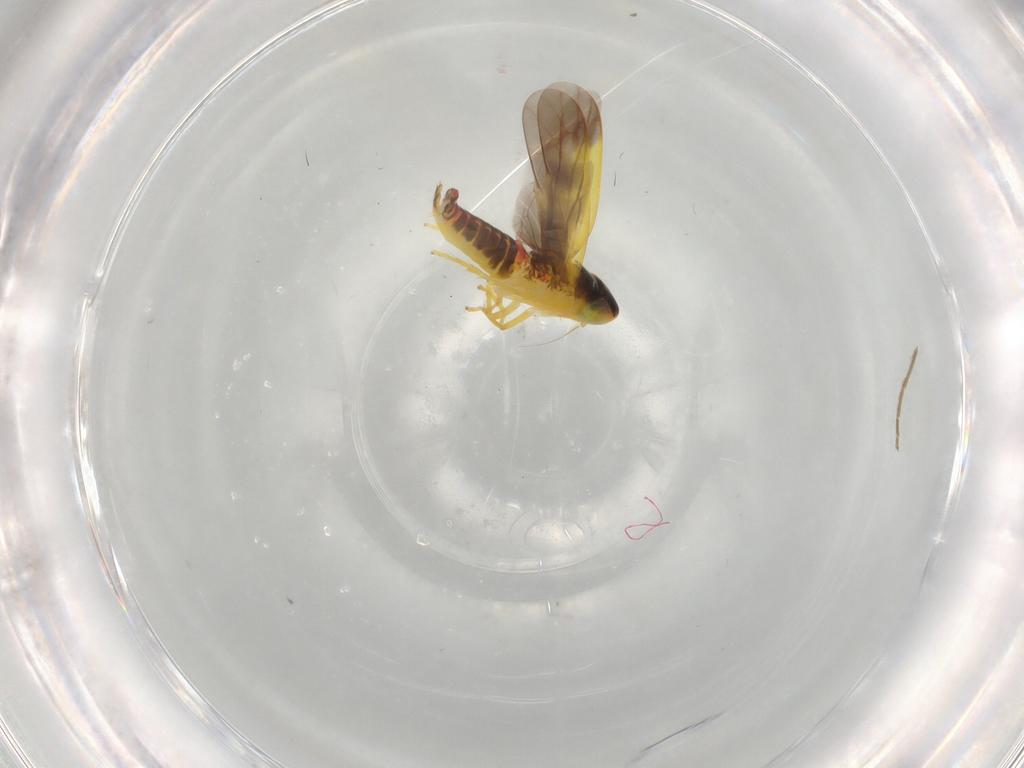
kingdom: Animalia
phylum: Arthropoda
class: Insecta
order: Hemiptera
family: Cicadellidae
